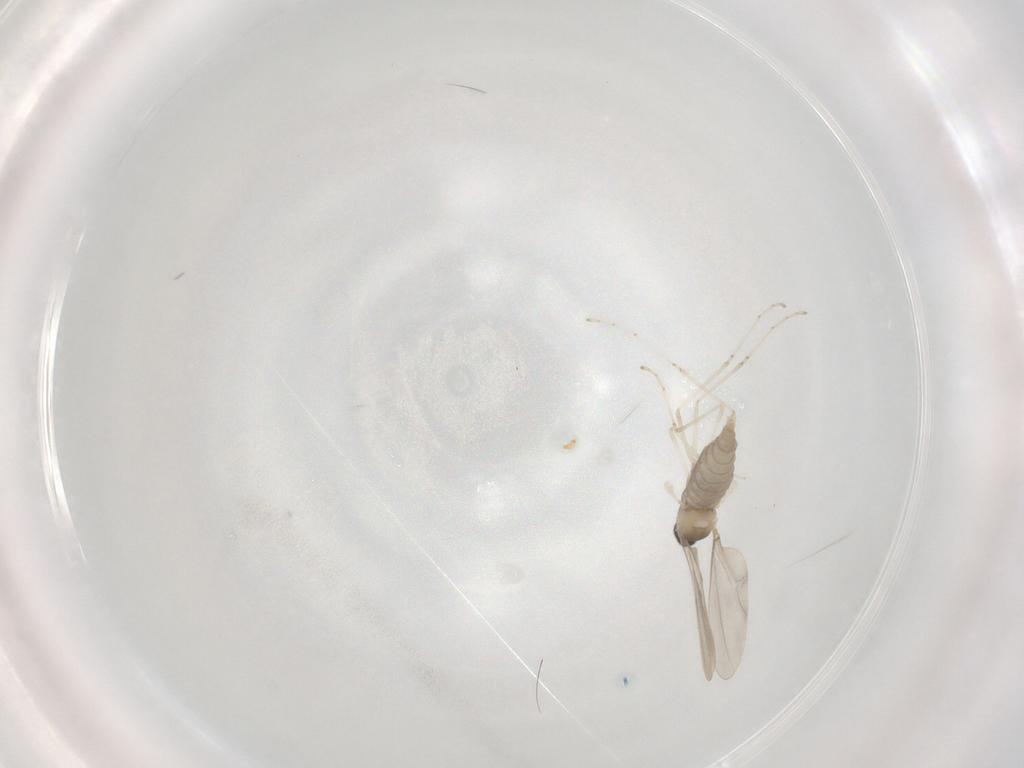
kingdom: Animalia
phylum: Arthropoda
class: Insecta
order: Diptera
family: Cecidomyiidae
